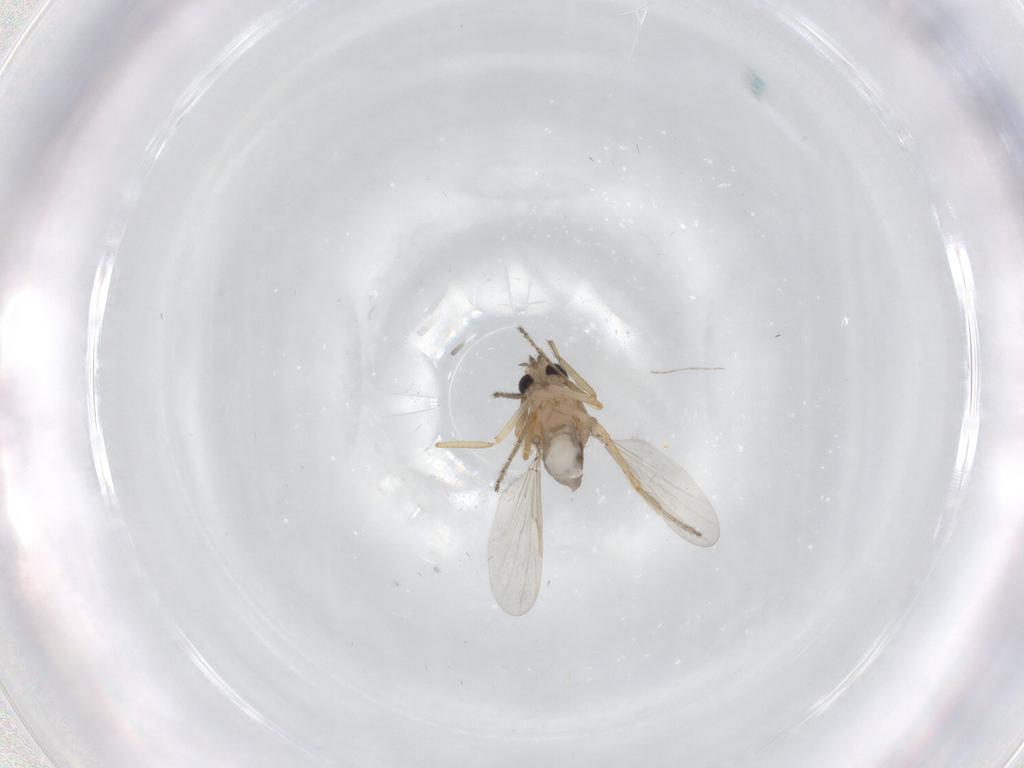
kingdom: Animalia
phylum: Arthropoda
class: Insecta
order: Diptera
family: Ceratopogonidae
